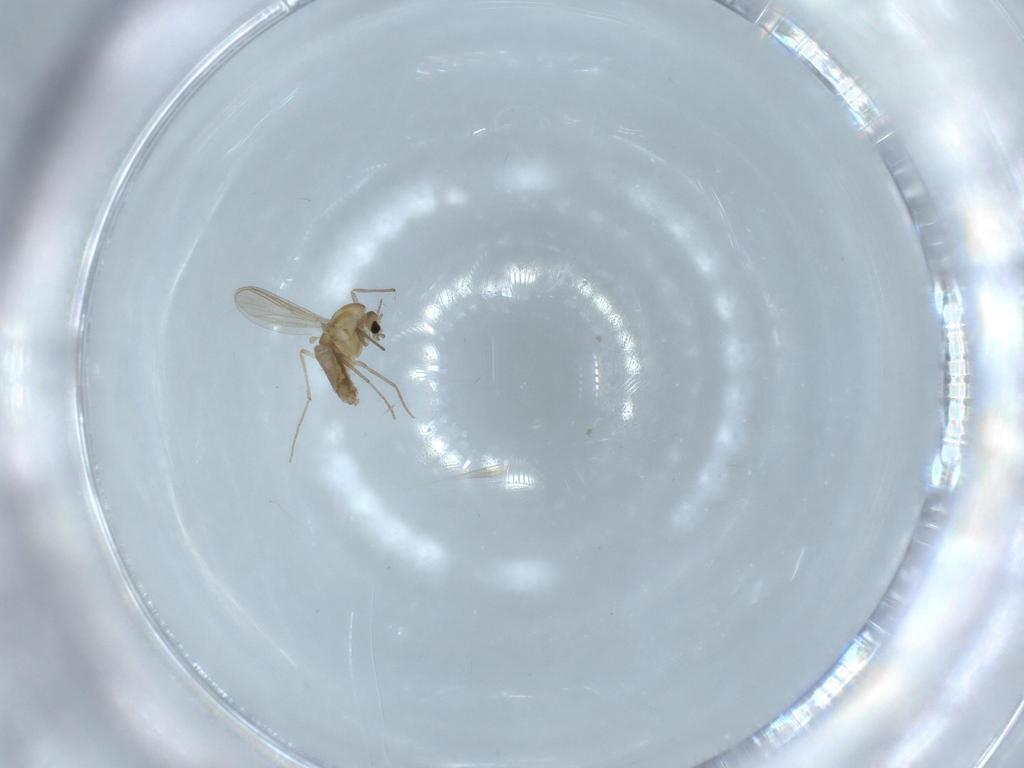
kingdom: Animalia
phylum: Arthropoda
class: Insecta
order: Diptera
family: Chironomidae
